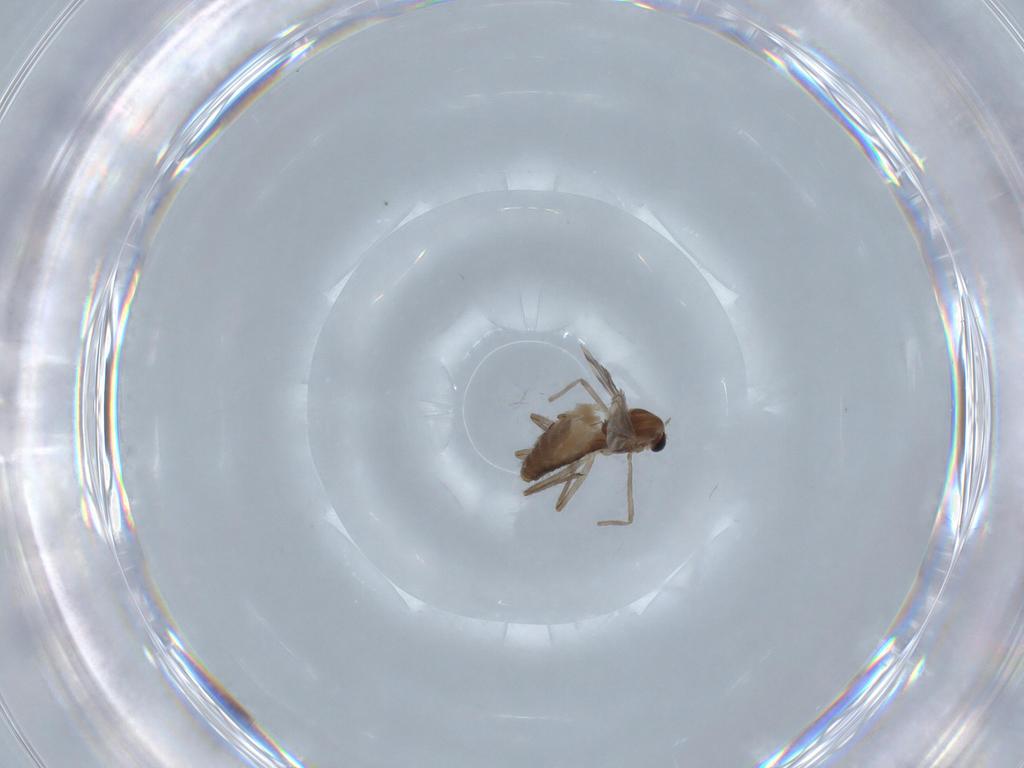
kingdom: Animalia
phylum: Arthropoda
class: Insecta
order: Diptera
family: Chironomidae
